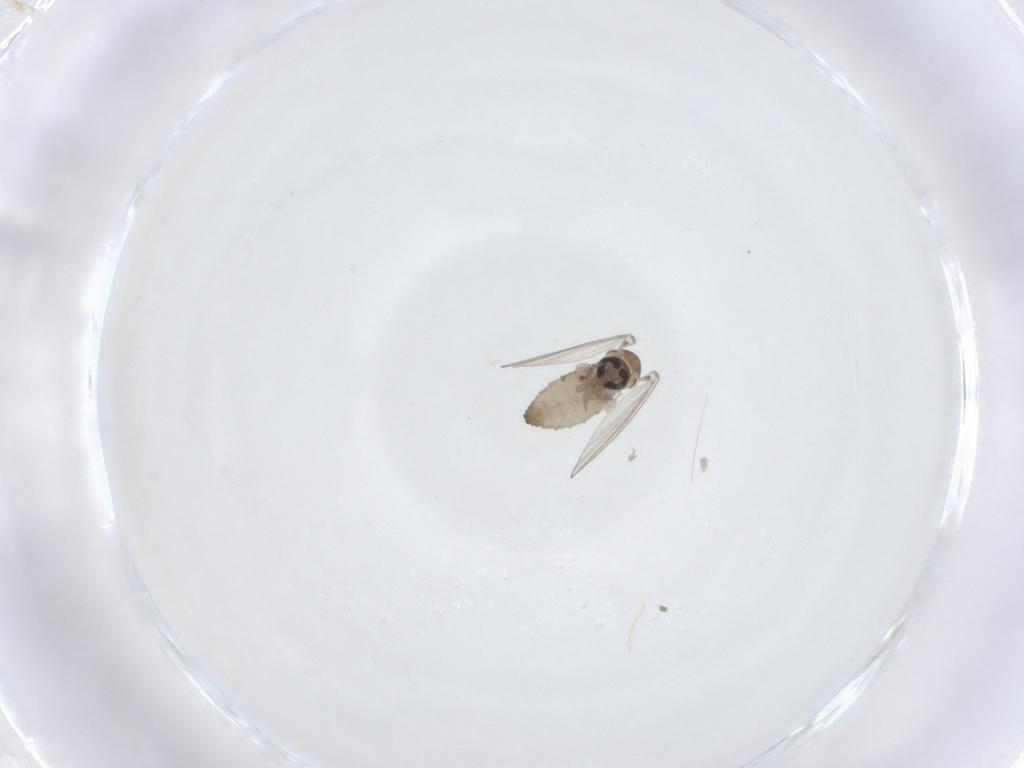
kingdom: Animalia
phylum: Arthropoda
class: Insecta
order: Diptera
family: Psychodidae
